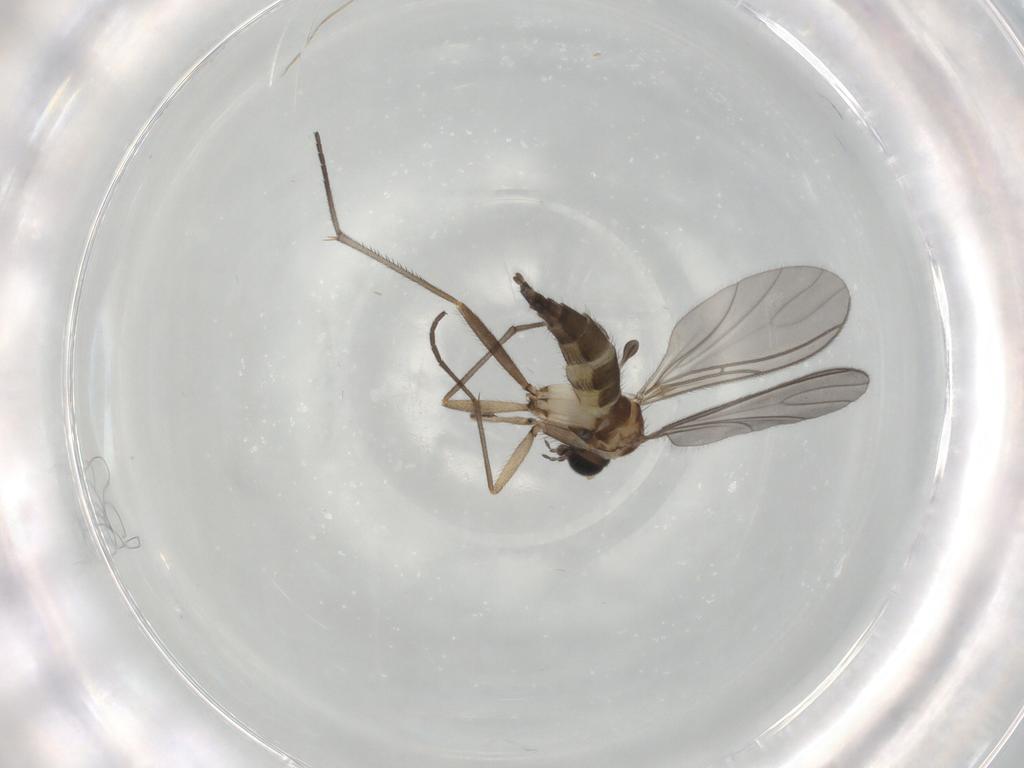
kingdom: Animalia
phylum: Arthropoda
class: Insecta
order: Diptera
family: Sciaridae
